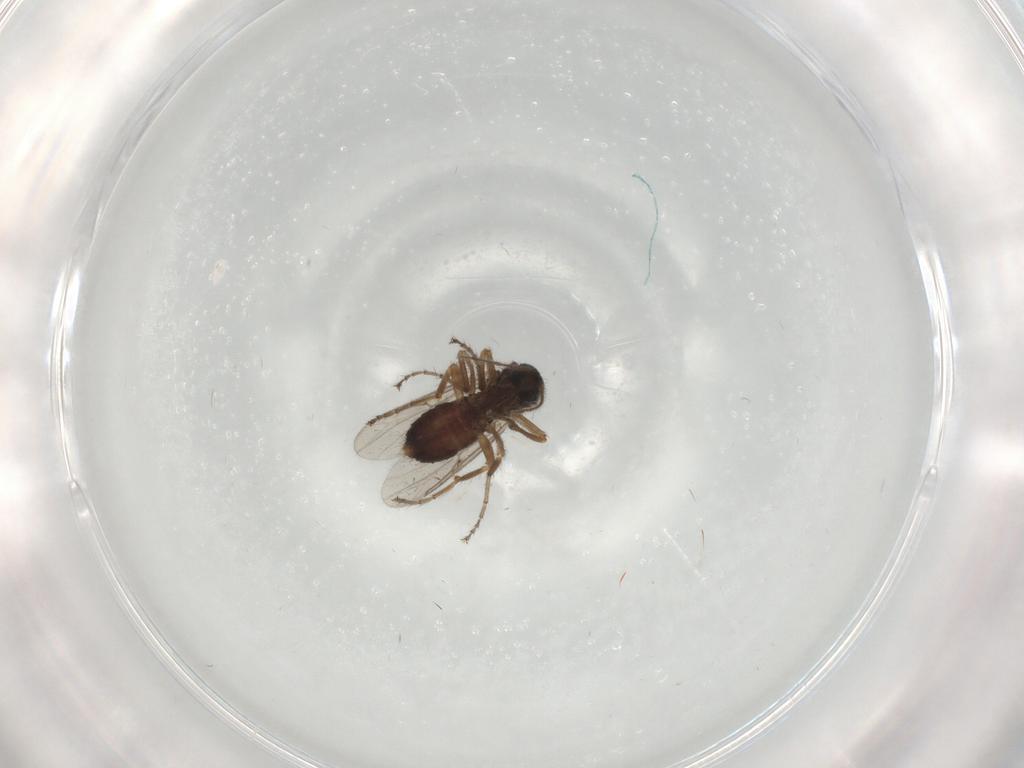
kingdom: Animalia
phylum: Arthropoda
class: Insecta
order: Diptera
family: Ceratopogonidae
